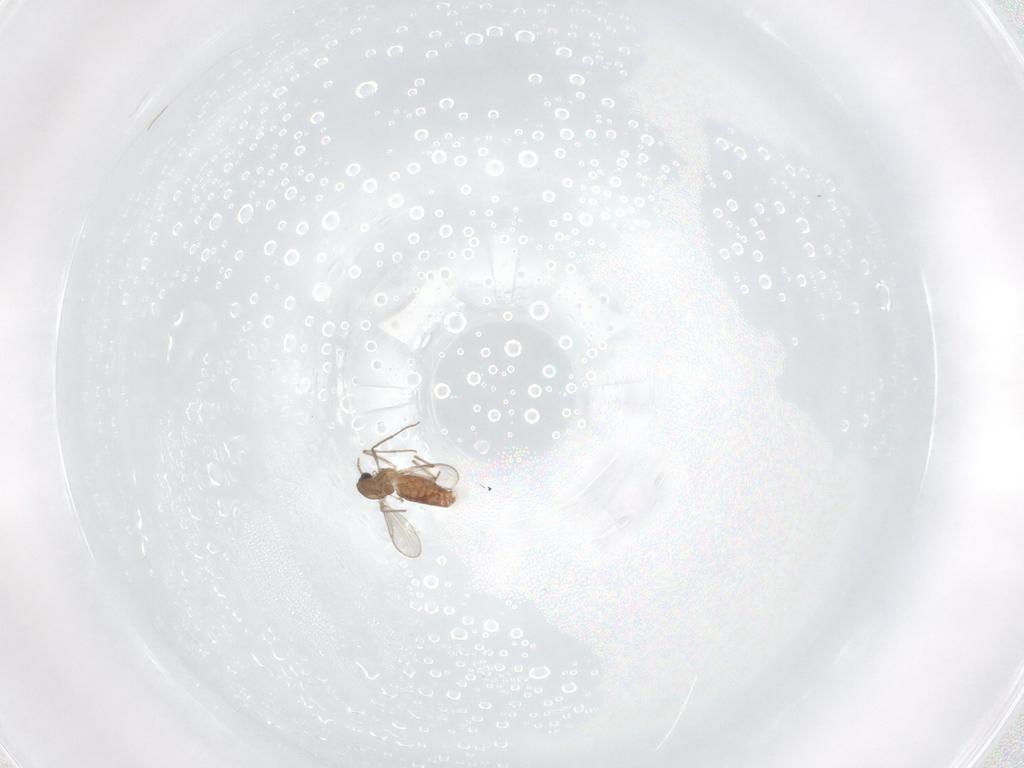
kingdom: Animalia
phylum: Arthropoda
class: Insecta
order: Diptera
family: Chironomidae
